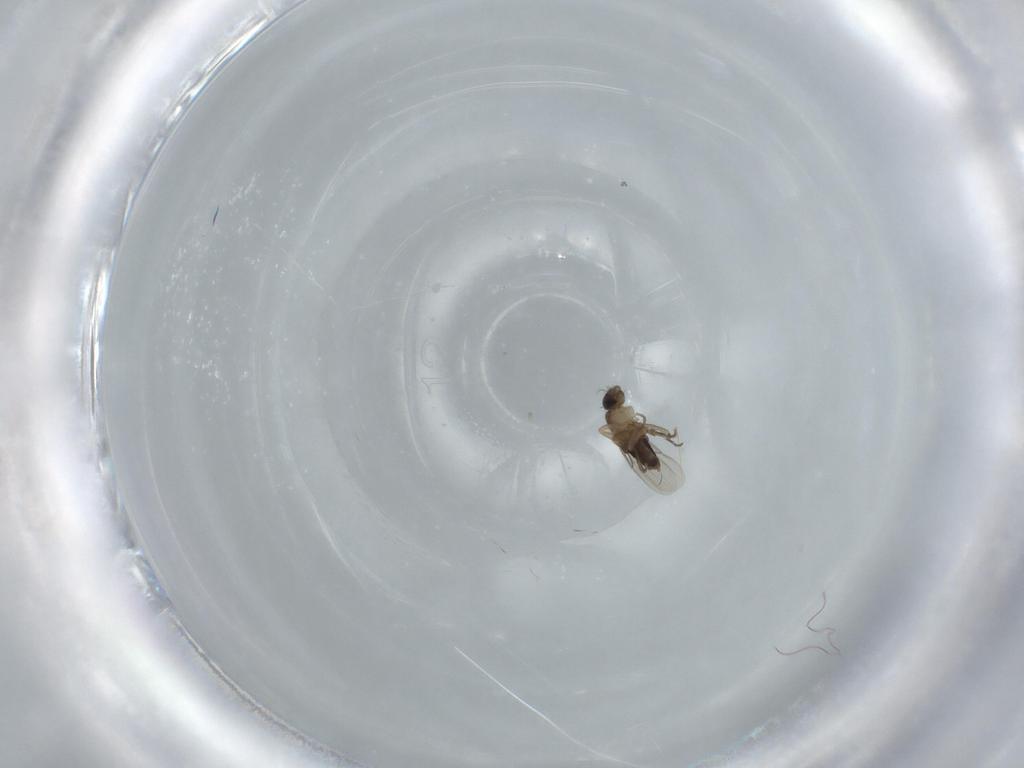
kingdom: Animalia
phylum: Arthropoda
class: Insecta
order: Diptera
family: Phoridae
